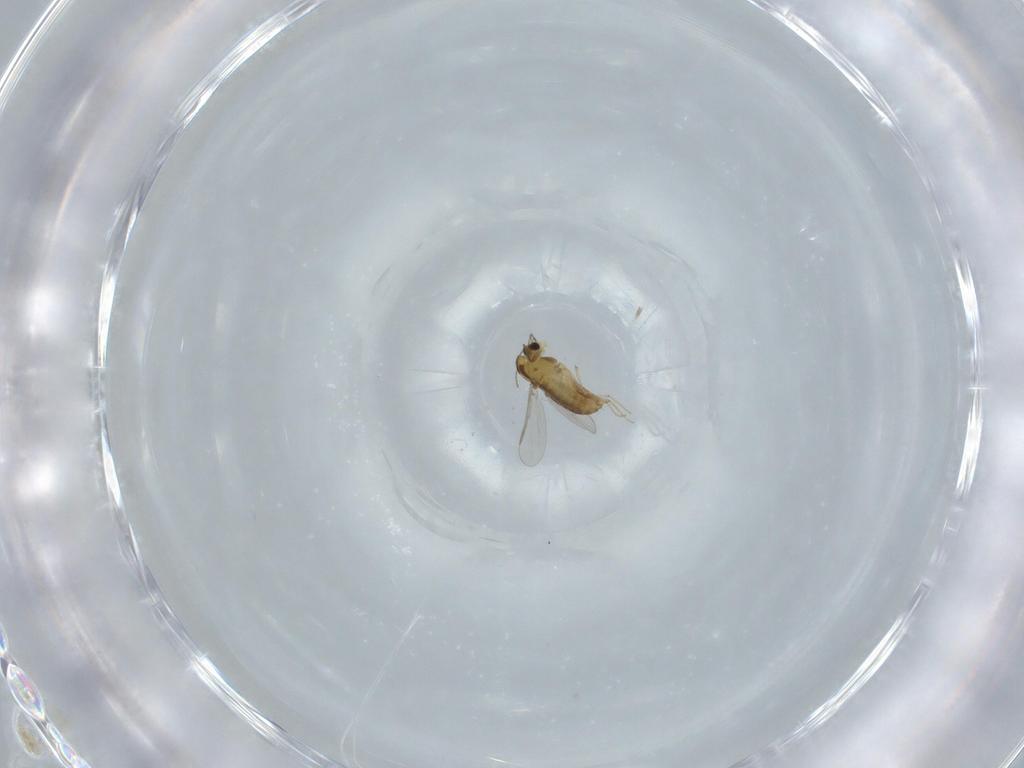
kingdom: Animalia
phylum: Arthropoda
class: Insecta
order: Diptera
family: Chironomidae
